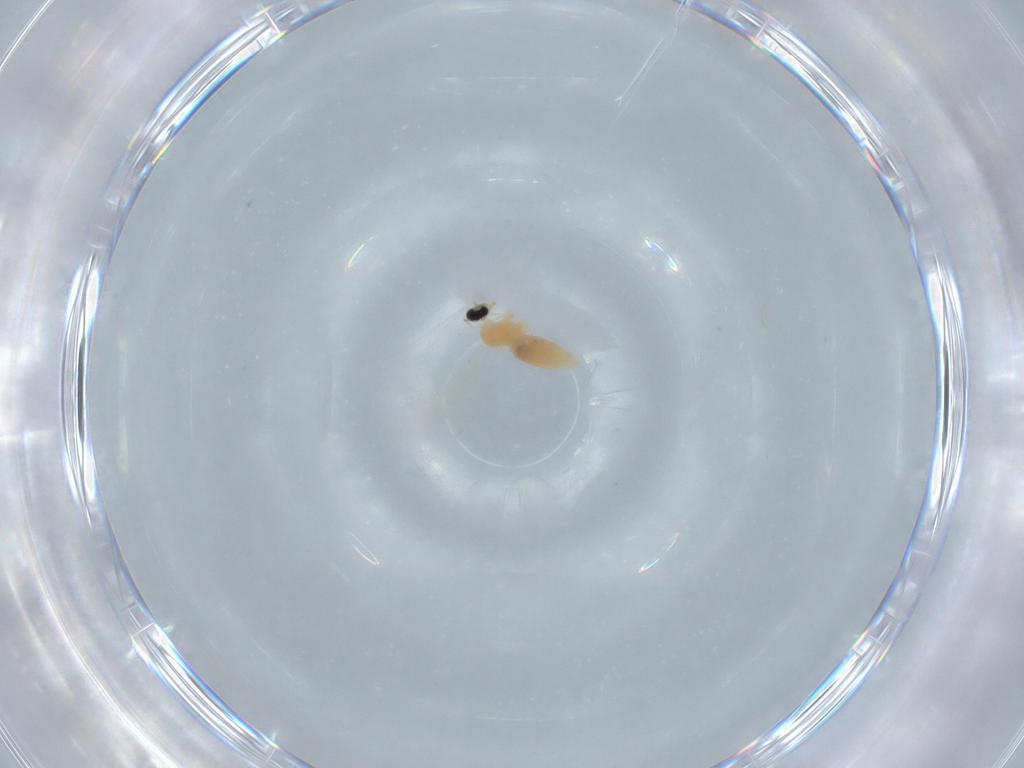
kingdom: Animalia
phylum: Arthropoda
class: Insecta
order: Diptera
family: Cecidomyiidae
